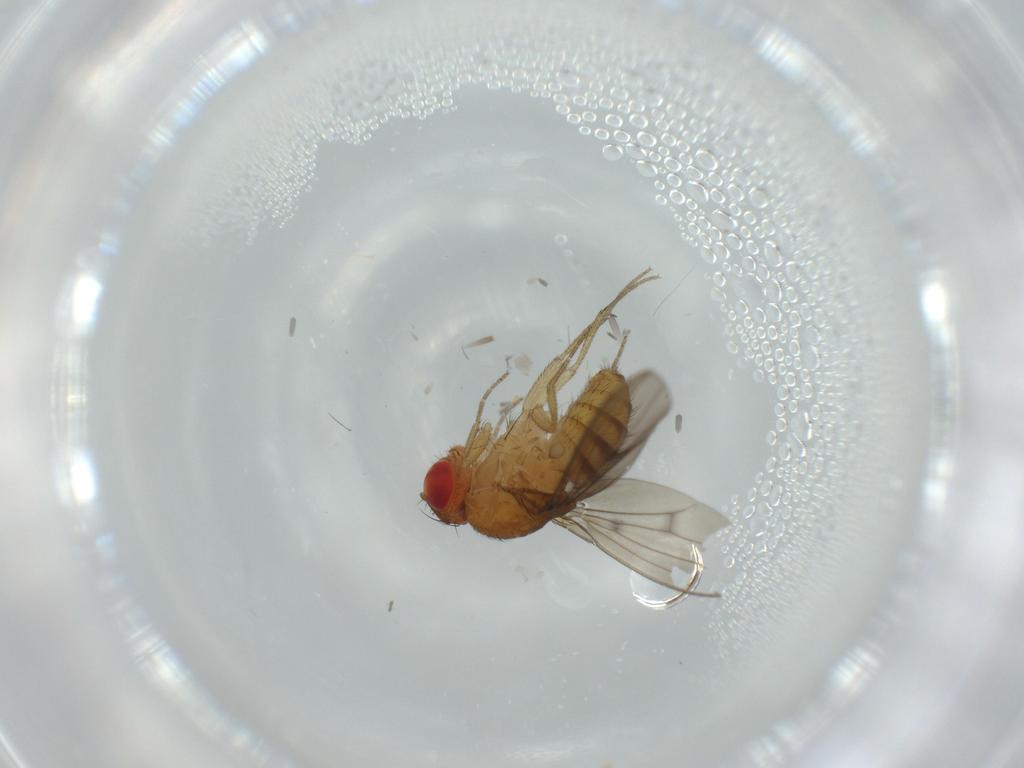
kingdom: Animalia
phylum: Arthropoda
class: Insecta
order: Diptera
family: Drosophilidae
